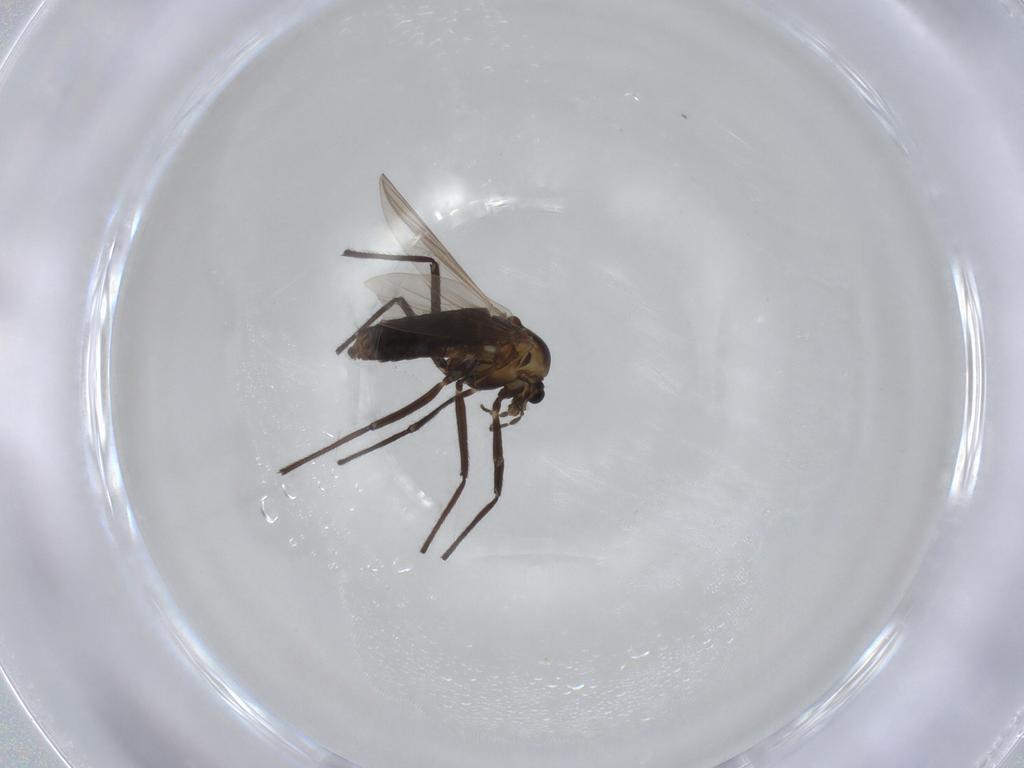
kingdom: Animalia
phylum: Arthropoda
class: Insecta
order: Diptera
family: Chironomidae
